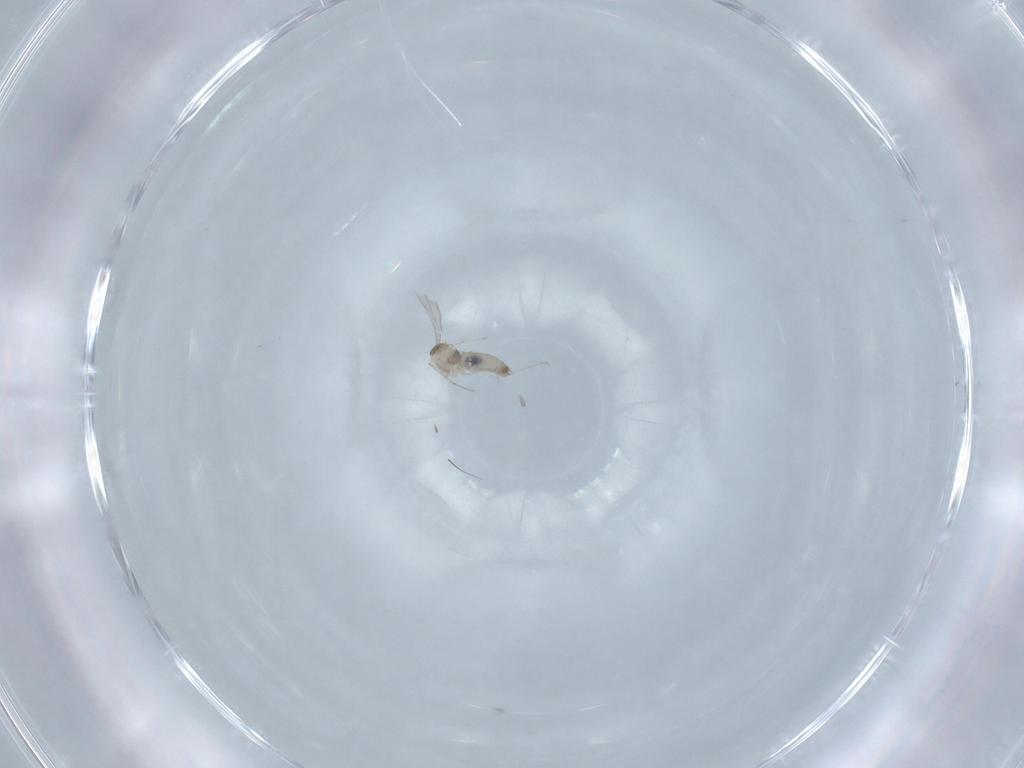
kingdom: Animalia
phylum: Arthropoda
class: Insecta
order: Diptera
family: Cecidomyiidae
